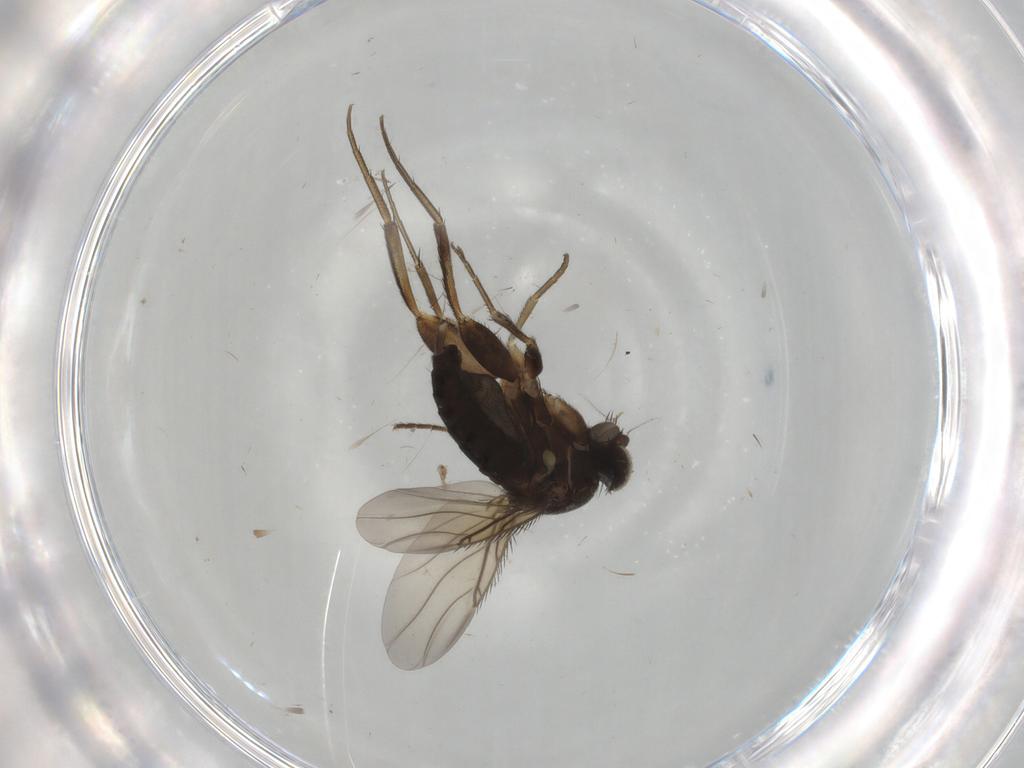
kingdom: Animalia
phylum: Arthropoda
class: Insecta
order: Diptera
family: Phoridae
